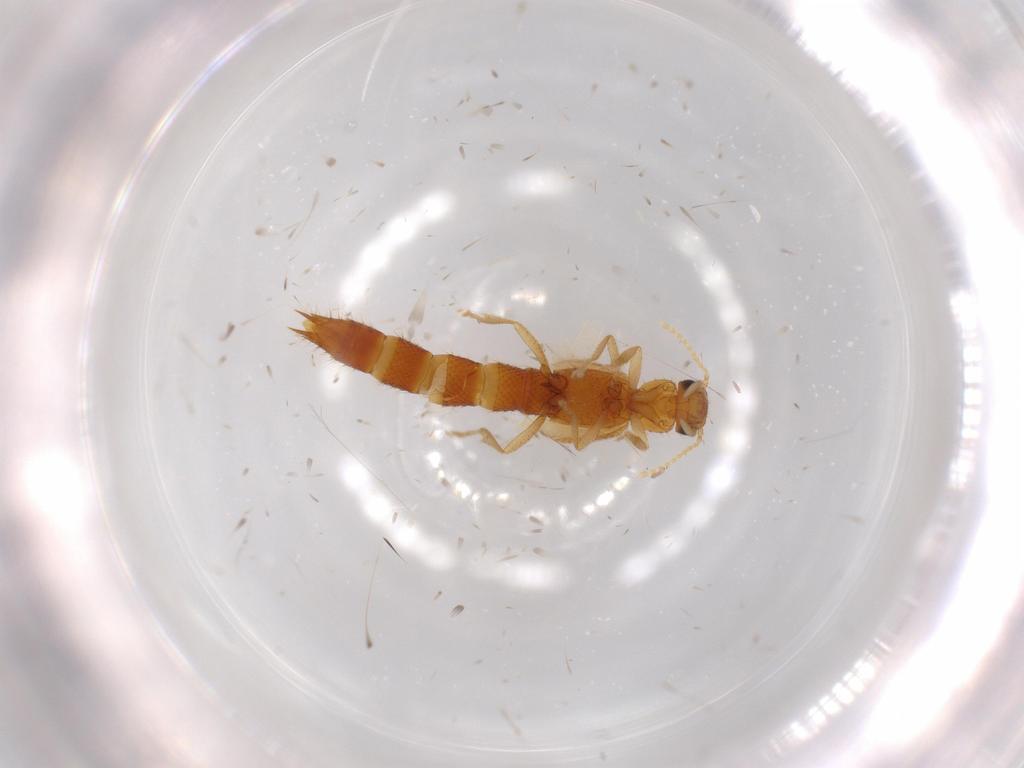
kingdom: Animalia
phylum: Arthropoda
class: Insecta
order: Coleoptera
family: Staphylinidae
